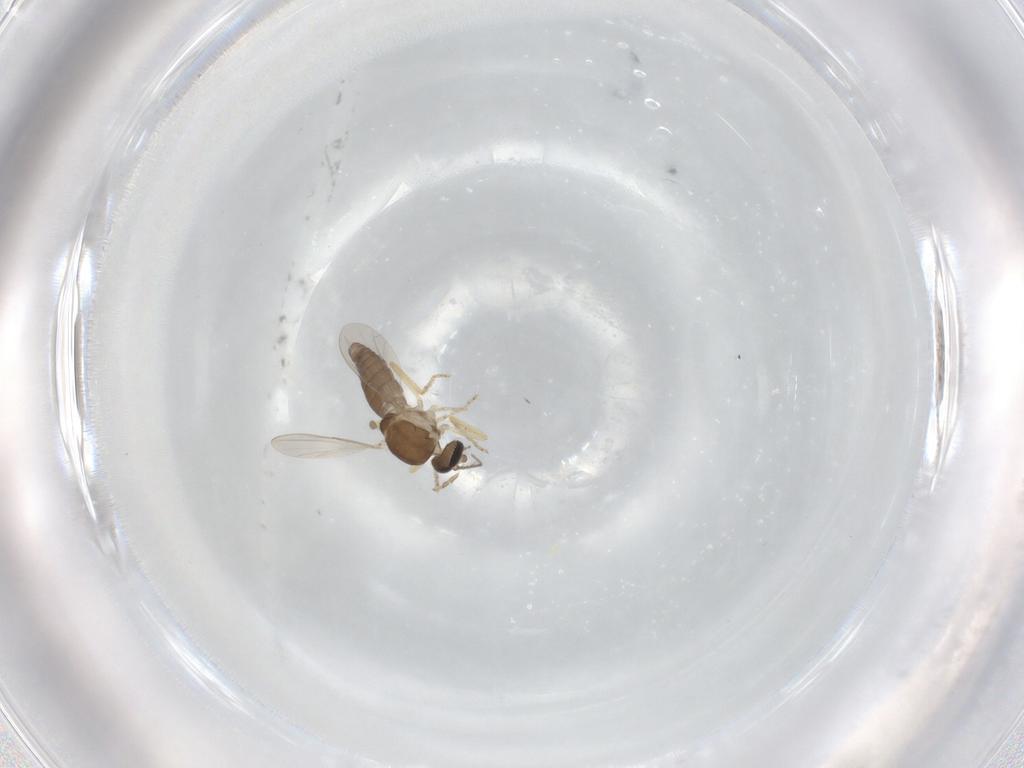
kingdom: Animalia
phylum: Arthropoda
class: Insecta
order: Diptera
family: Ceratopogonidae
